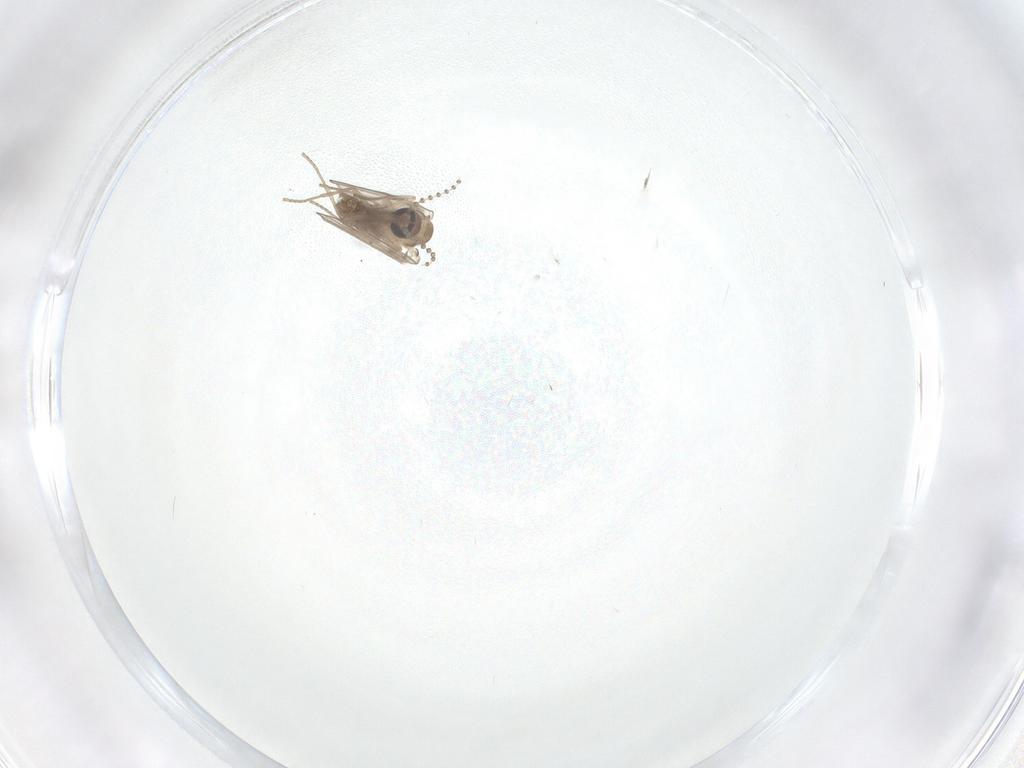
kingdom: Animalia
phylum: Arthropoda
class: Insecta
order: Diptera
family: Psychodidae
